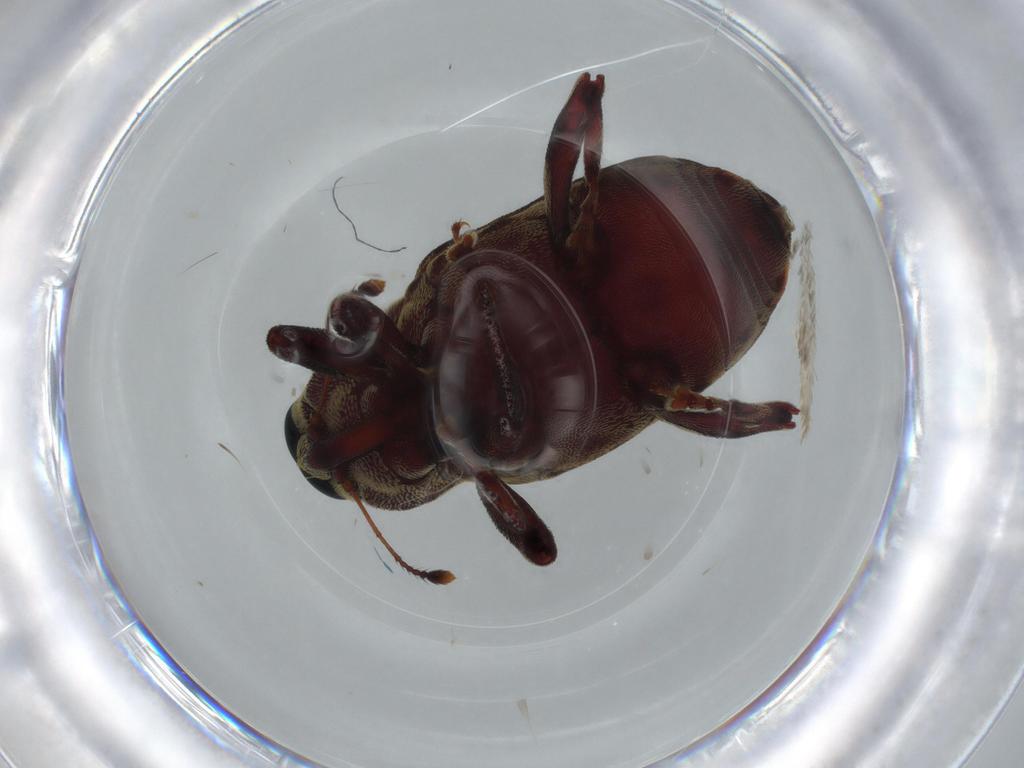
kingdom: Animalia
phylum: Arthropoda
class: Insecta
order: Coleoptera
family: Curculionidae
